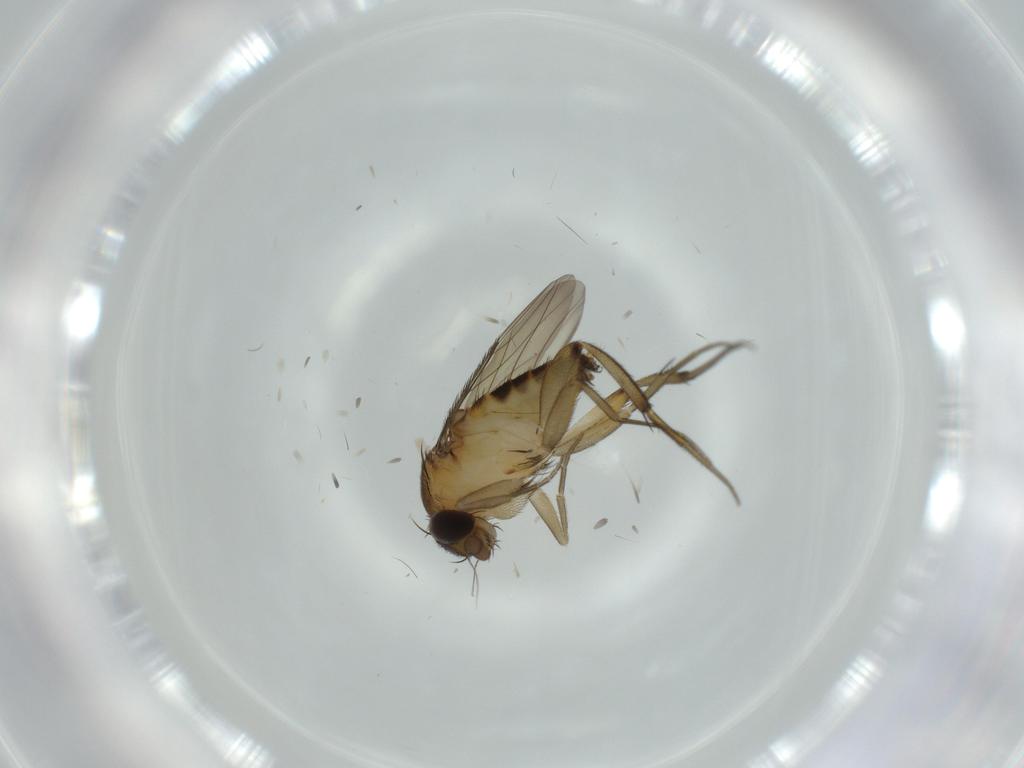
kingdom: Animalia
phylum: Arthropoda
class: Insecta
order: Diptera
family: Phoridae
